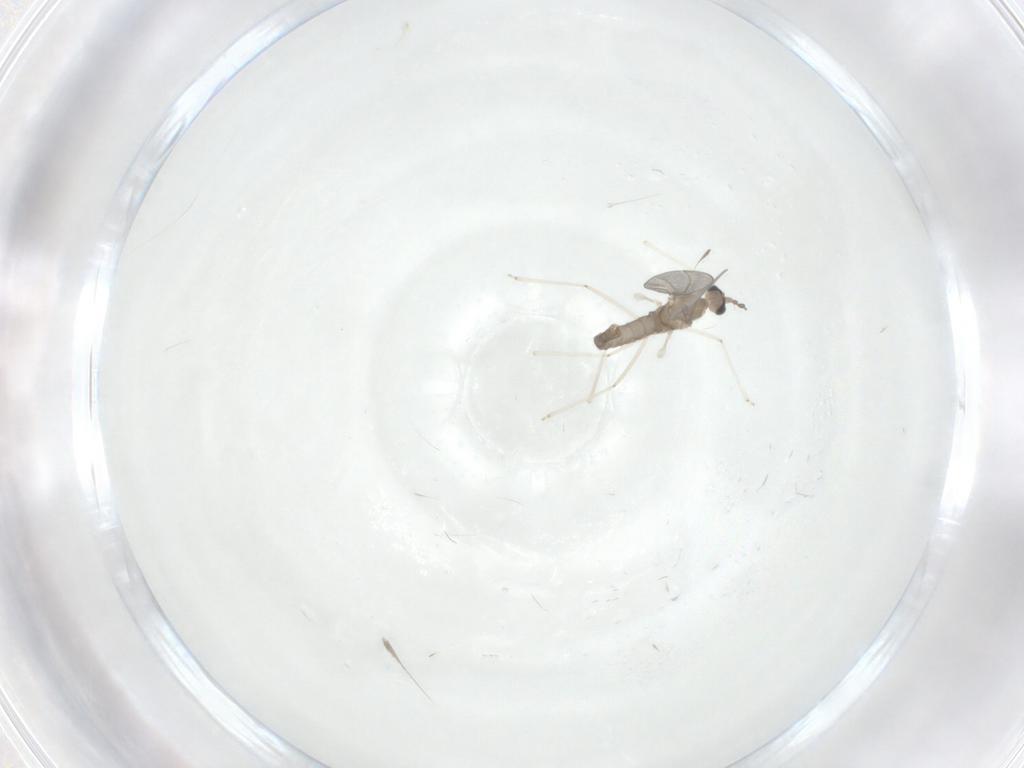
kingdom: Animalia
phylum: Arthropoda
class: Insecta
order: Diptera
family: Cecidomyiidae
